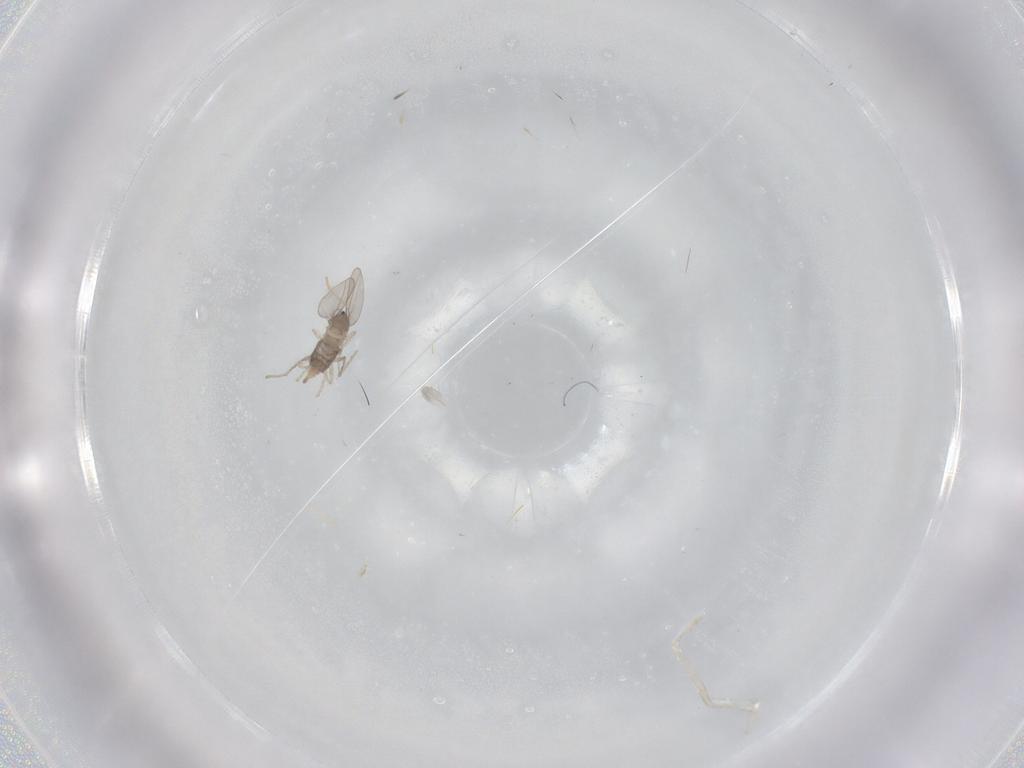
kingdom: Animalia
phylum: Arthropoda
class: Insecta
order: Diptera
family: Cecidomyiidae
